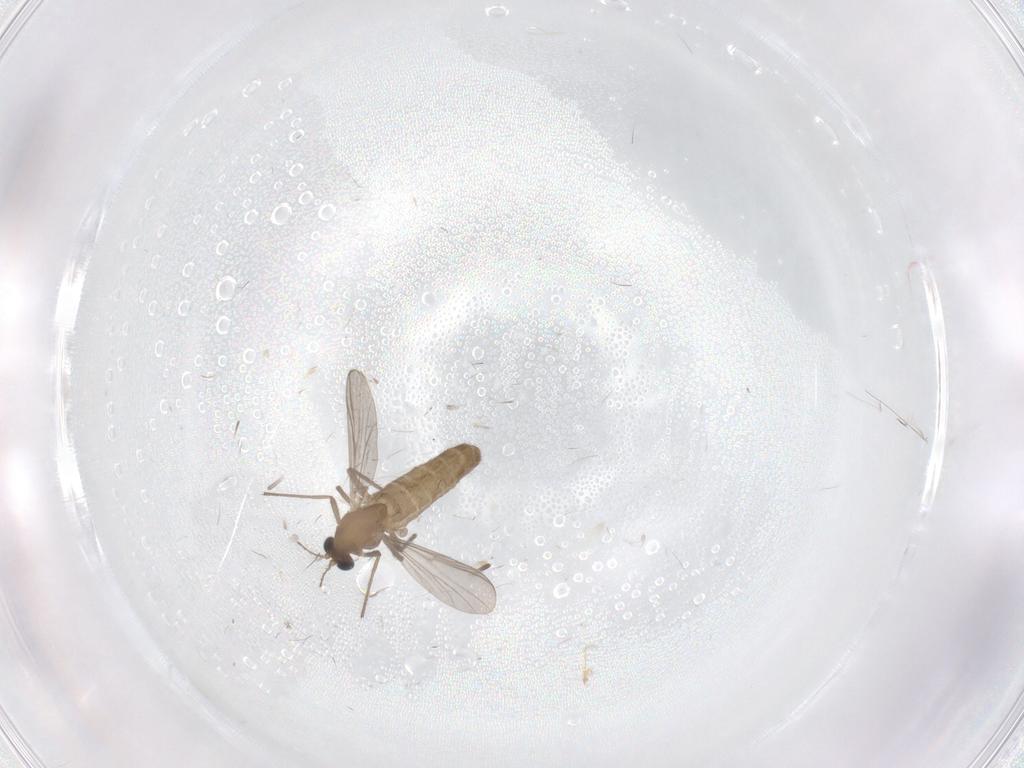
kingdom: Animalia
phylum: Arthropoda
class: Insecta
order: Diptera
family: Chironomidae
